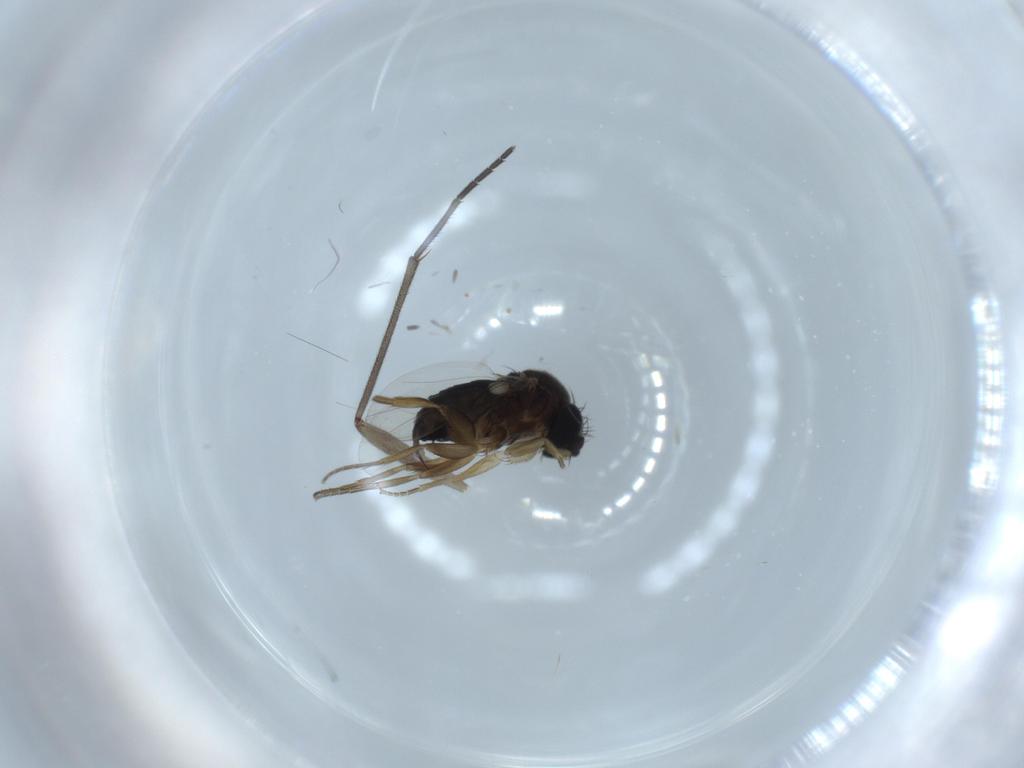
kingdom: Animalia
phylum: Arthropoda
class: Insecta
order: Diptera
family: Sciaridae
